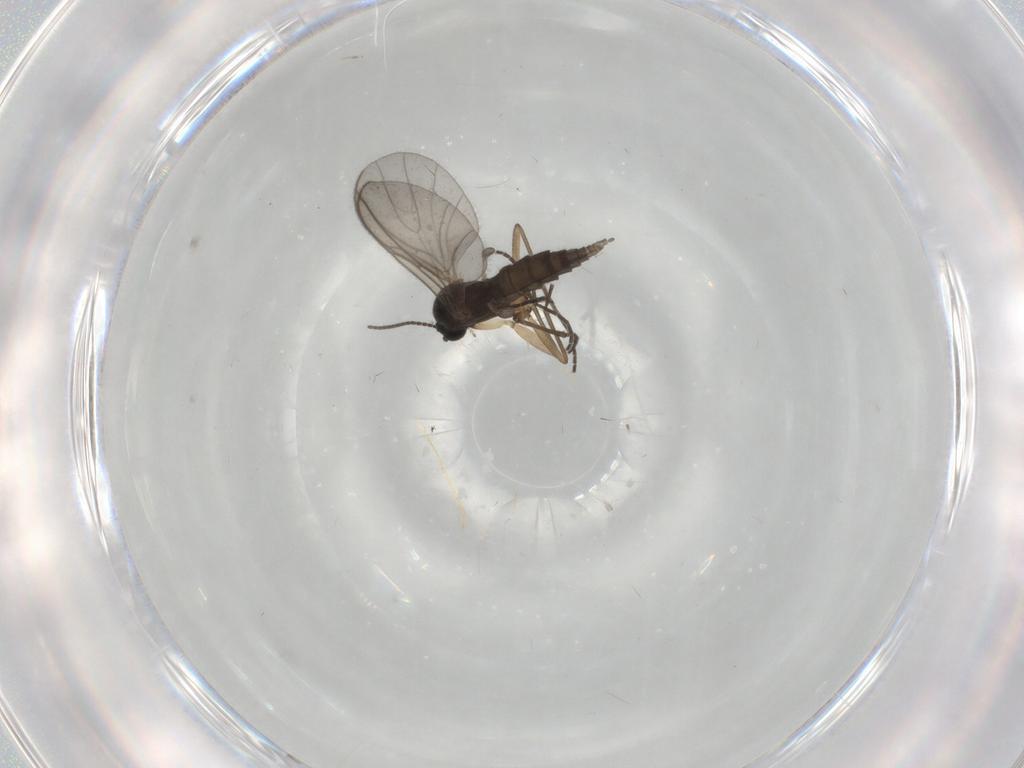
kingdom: Animalia
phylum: Arthropoda
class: Insecta
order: Diptera
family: Sciaridae
